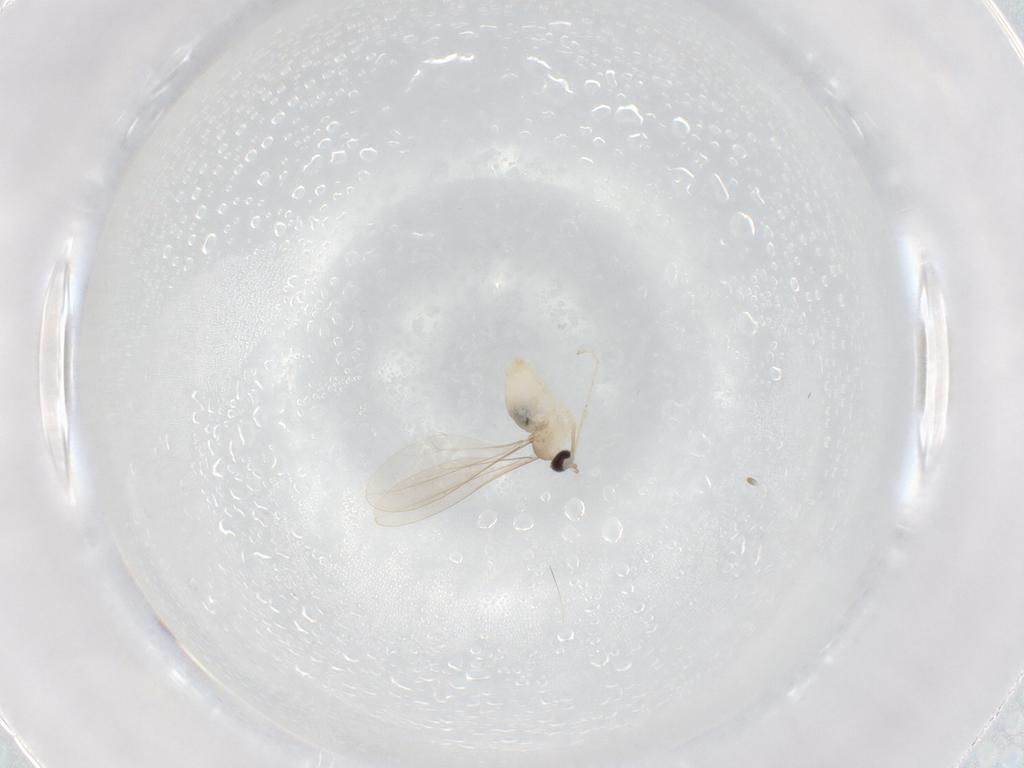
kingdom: Animalia
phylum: Arthropoda
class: Insecta
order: Diptera
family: Cecidomyiidae
